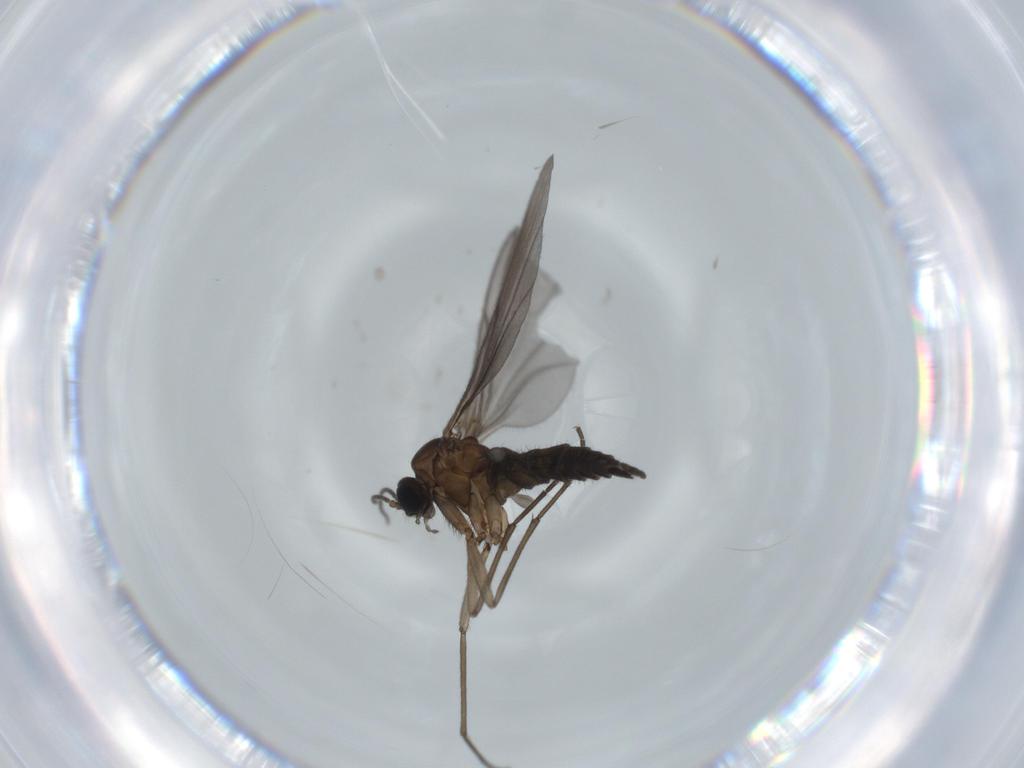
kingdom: Animalia
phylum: Arthropoda
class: Insecta
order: Diptera
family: Sciaridae
